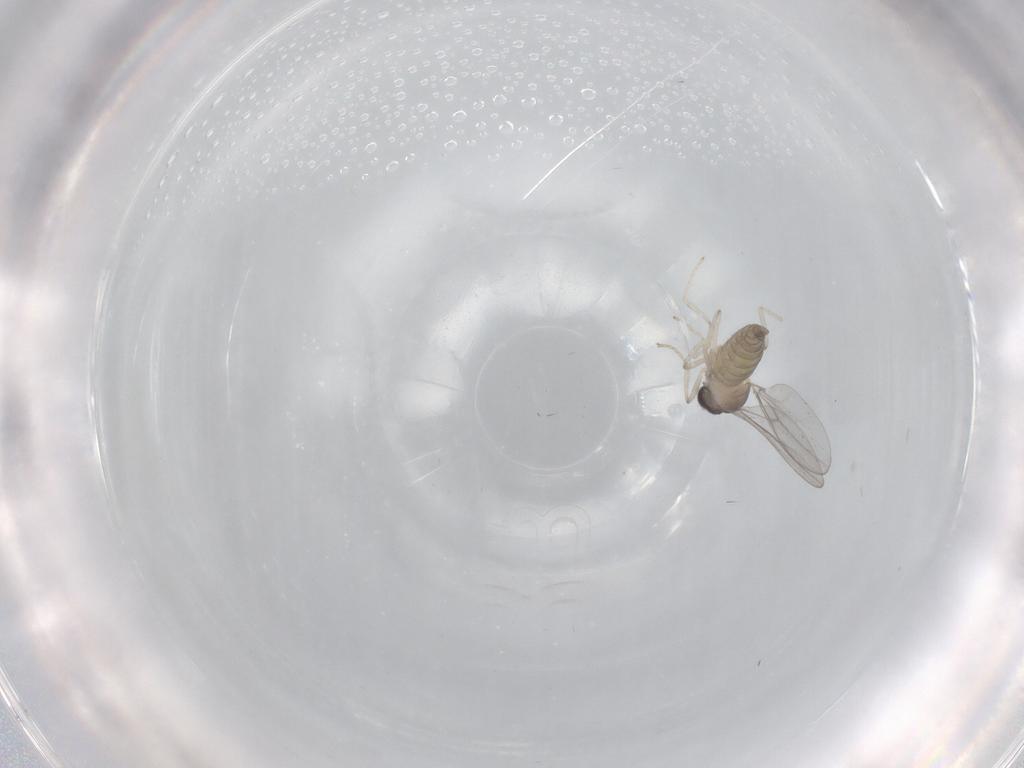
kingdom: Animalia
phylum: Arthropoda
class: Insecta
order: Diptera
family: Cecidomyiidae
